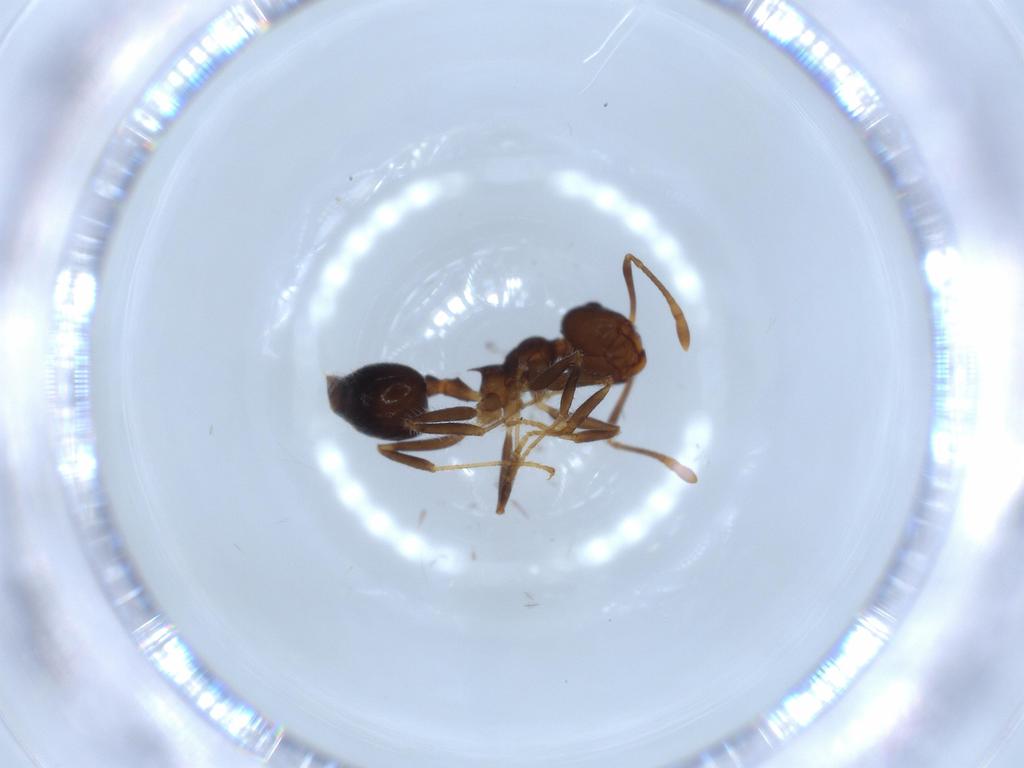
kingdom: Animalia
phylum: Arthropoda
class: Insecta
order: Hymenoptera
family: Formicidae
